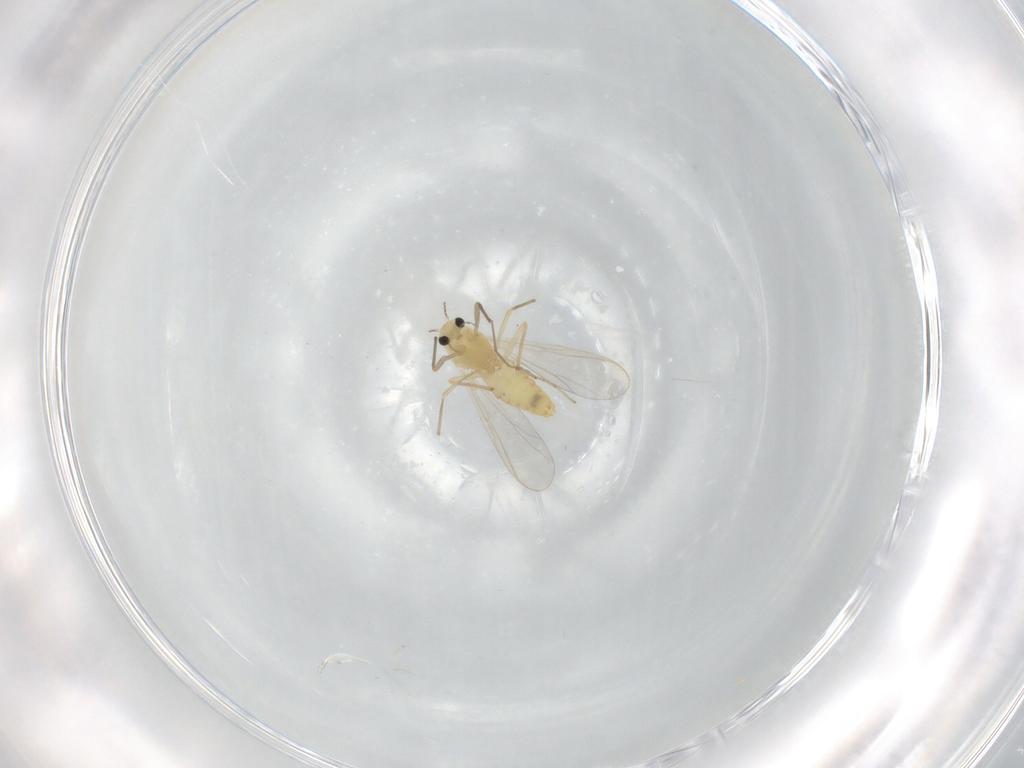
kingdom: Animalia
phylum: Arthropoda
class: Insecta
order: Diptera
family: Chironomidae
